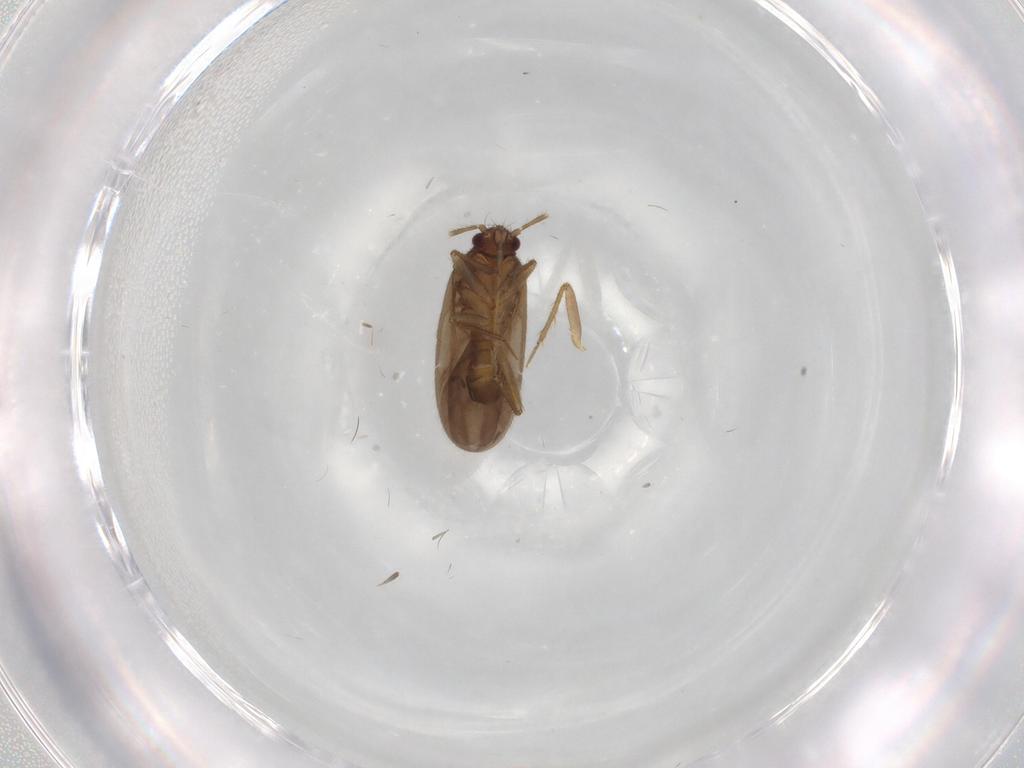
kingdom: Animalia
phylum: Arthropoda
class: Insecta
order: Hemiptera
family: Ceratocombidae
